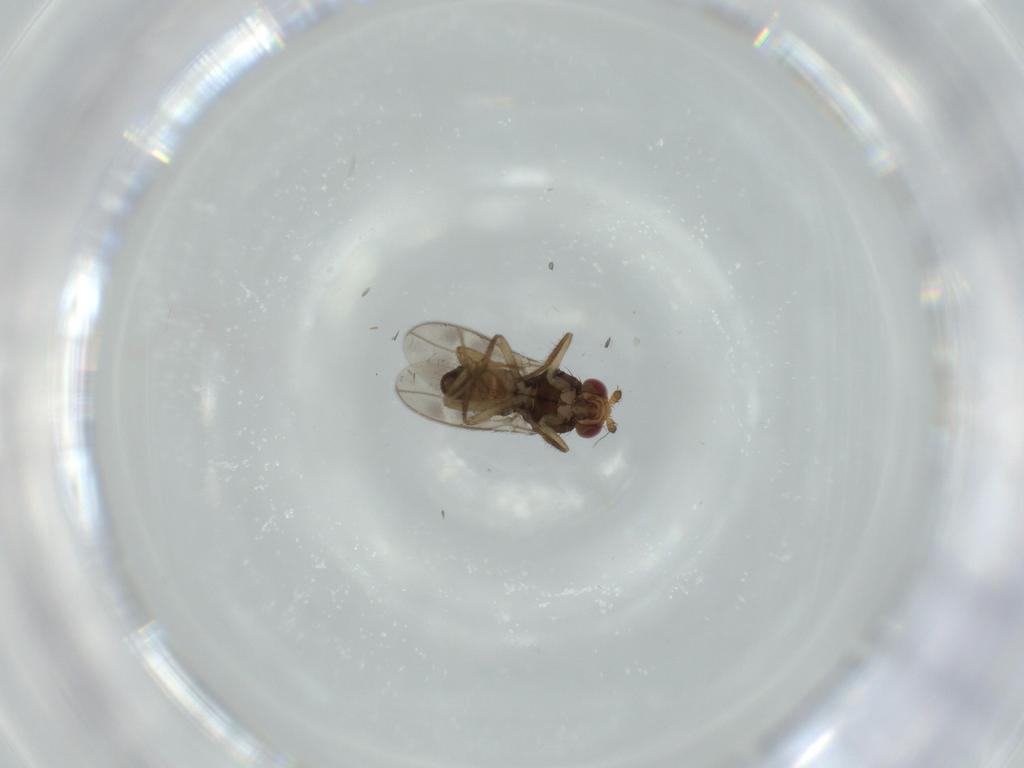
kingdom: Animalia
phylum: Arthropoda
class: Insecta
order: Diptera
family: Sphaeroceridae
